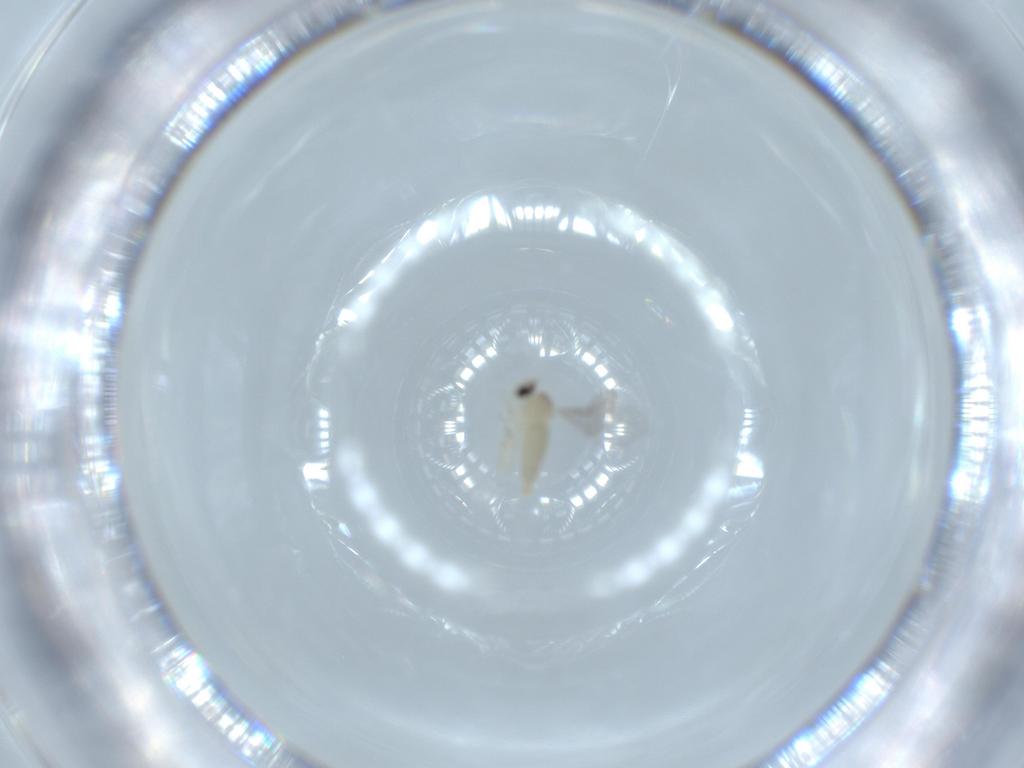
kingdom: Animalia
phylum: Arthropoda
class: Insecta
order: Diptera
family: Cecidomyiidae
